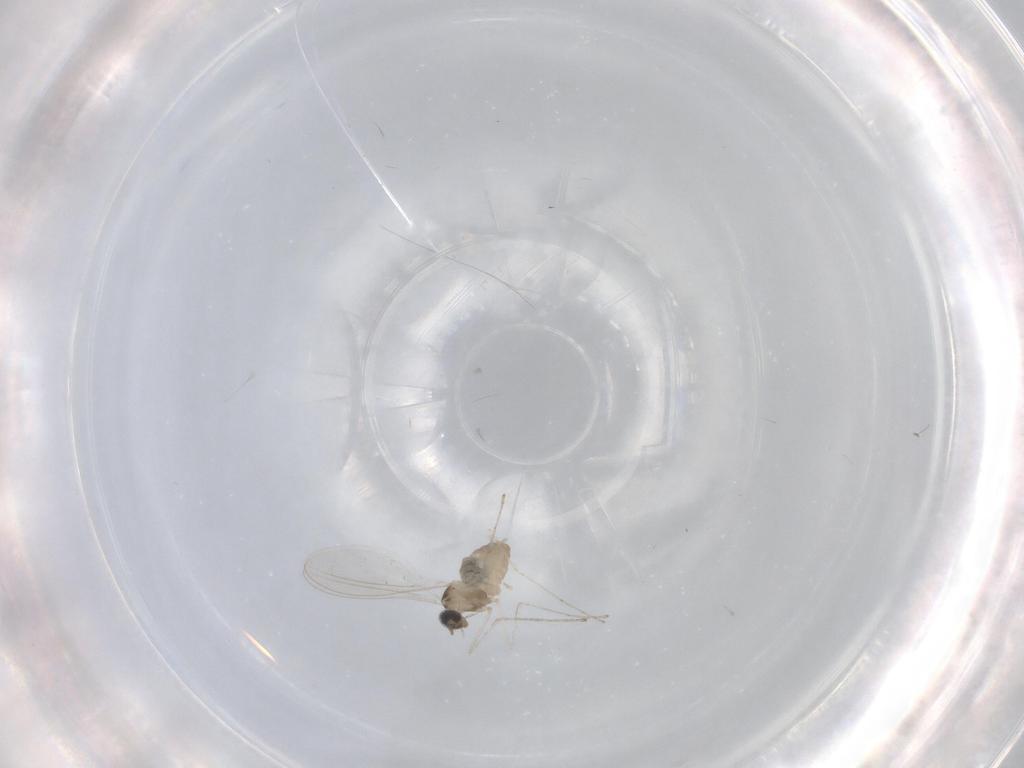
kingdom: Animalia
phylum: Arthropoda
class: Insecta
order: Diptera
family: Cecidomyiidae
